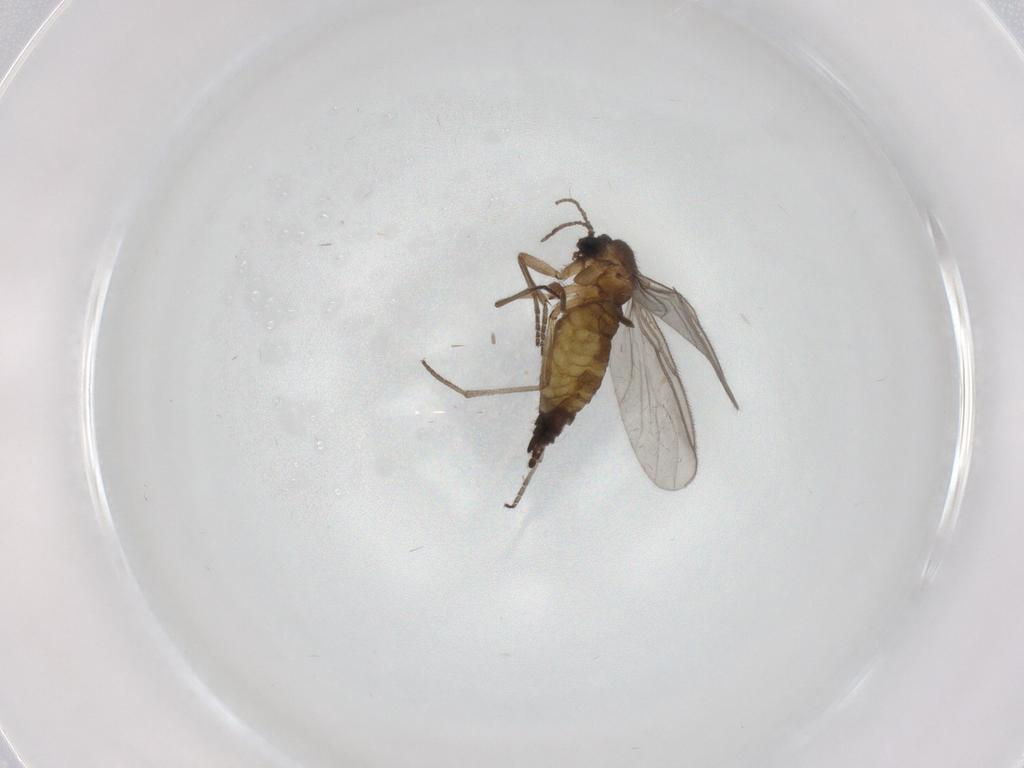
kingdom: Animalia
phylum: Arthropoda
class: Insecta
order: Diptera
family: Sciaridae
